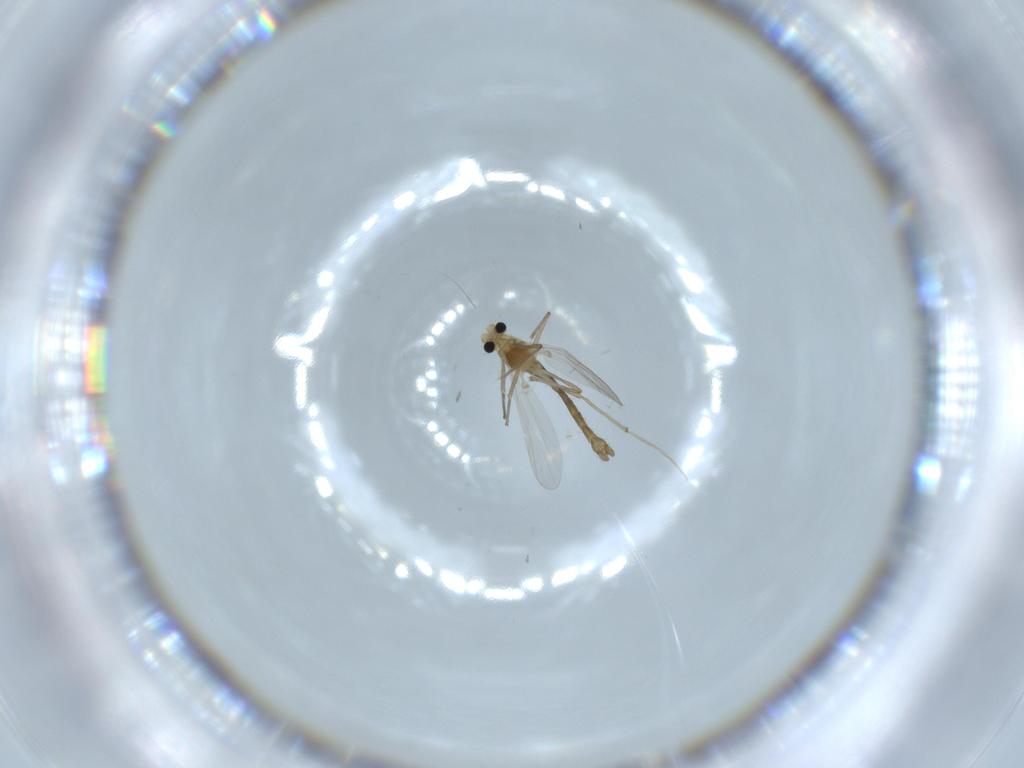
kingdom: Animalia
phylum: Arthropoda
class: Insecta
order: Diptera
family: Chironomidae
